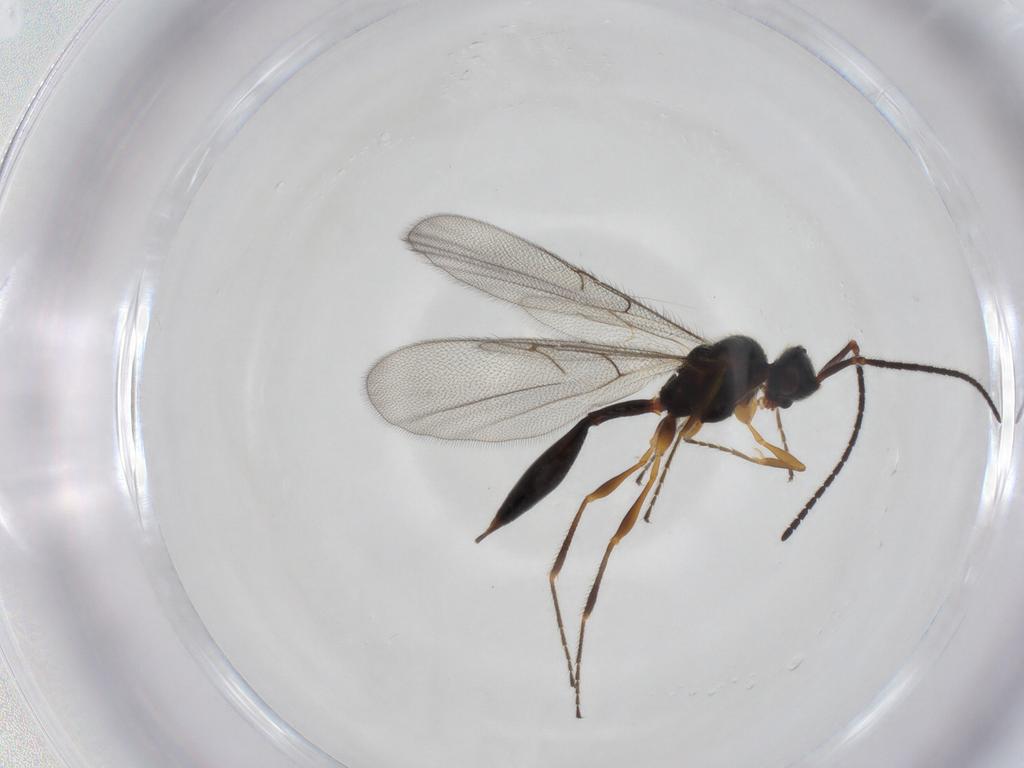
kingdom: Animalia
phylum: Arthropoda
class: Insecta
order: Hymenoptera
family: Diapriidae
